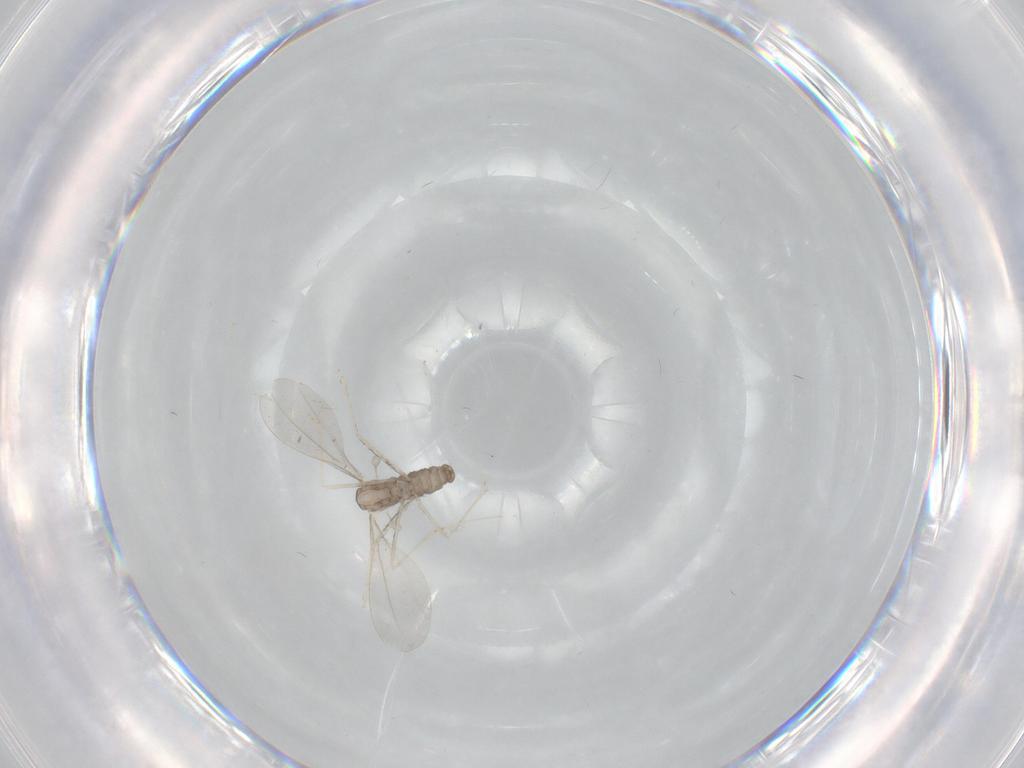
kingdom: Animalia
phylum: Arthropoda
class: Insecta
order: Diptera
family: Cecidomyiidae
